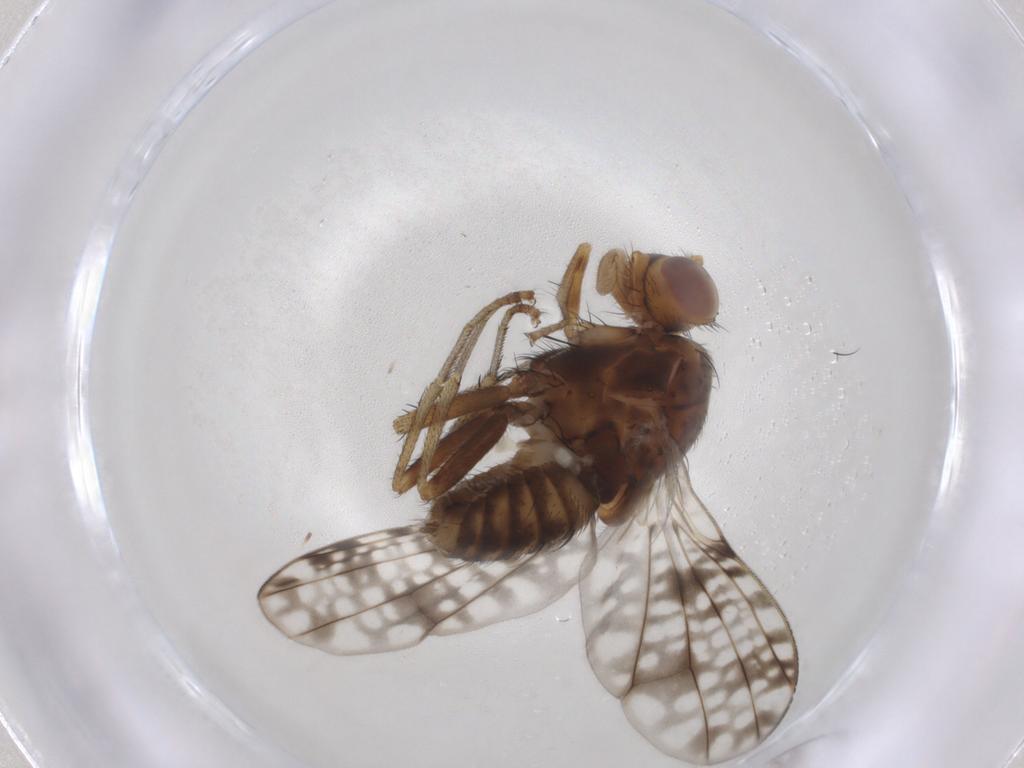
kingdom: Animalia
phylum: Arthropoda
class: Insecta
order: Diptera
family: Lauxaniidae
